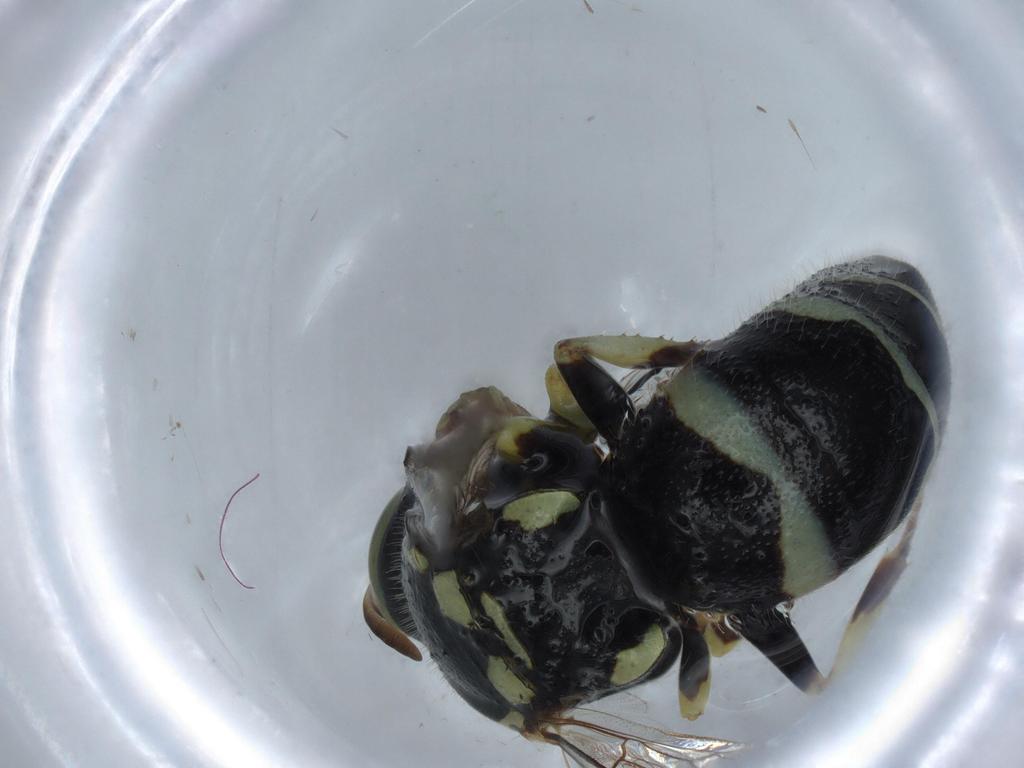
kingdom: Animalia
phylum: Arthropoda
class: Insecta
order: Hymenoptera
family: Crabronidae
